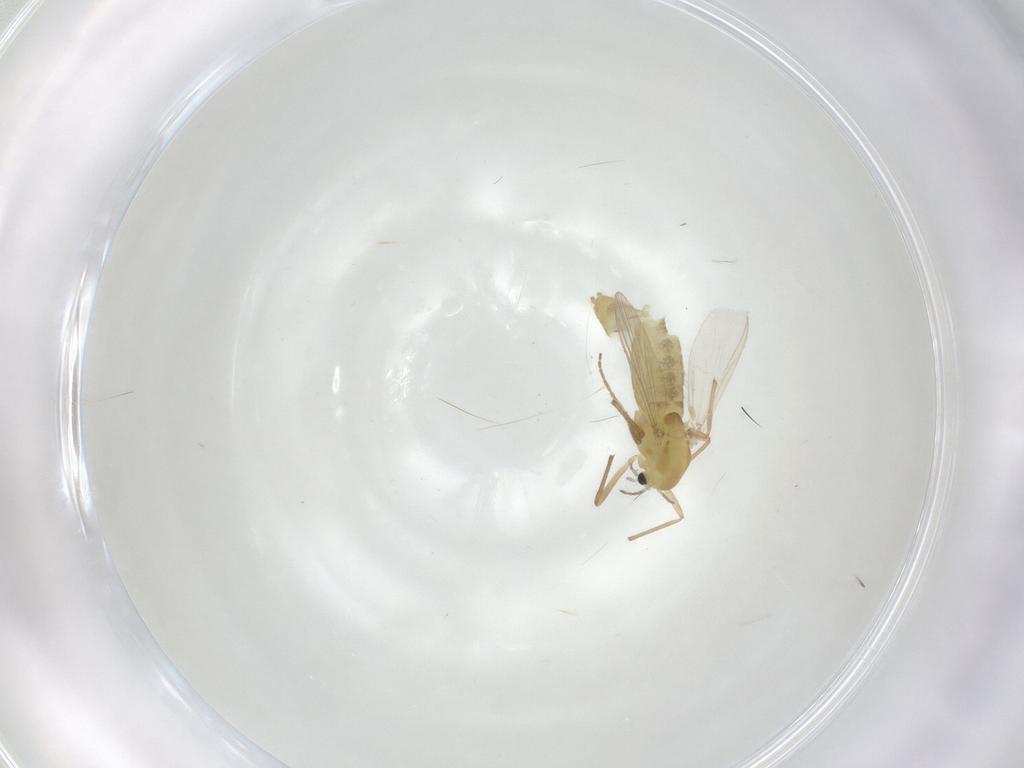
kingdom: Animalia
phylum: Arthropoda
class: Insecta
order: Diptera
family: Chironomidae
